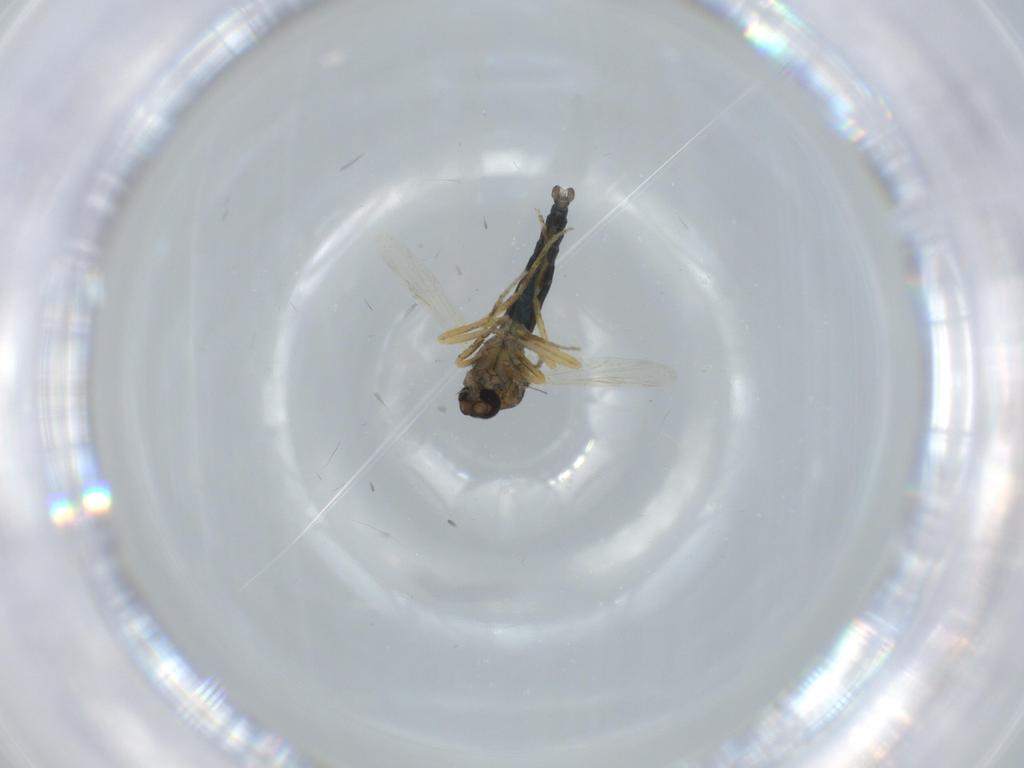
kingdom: Animalia
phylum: Arthropoda
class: Insecta
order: Diptera
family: Ceratopogonidae
